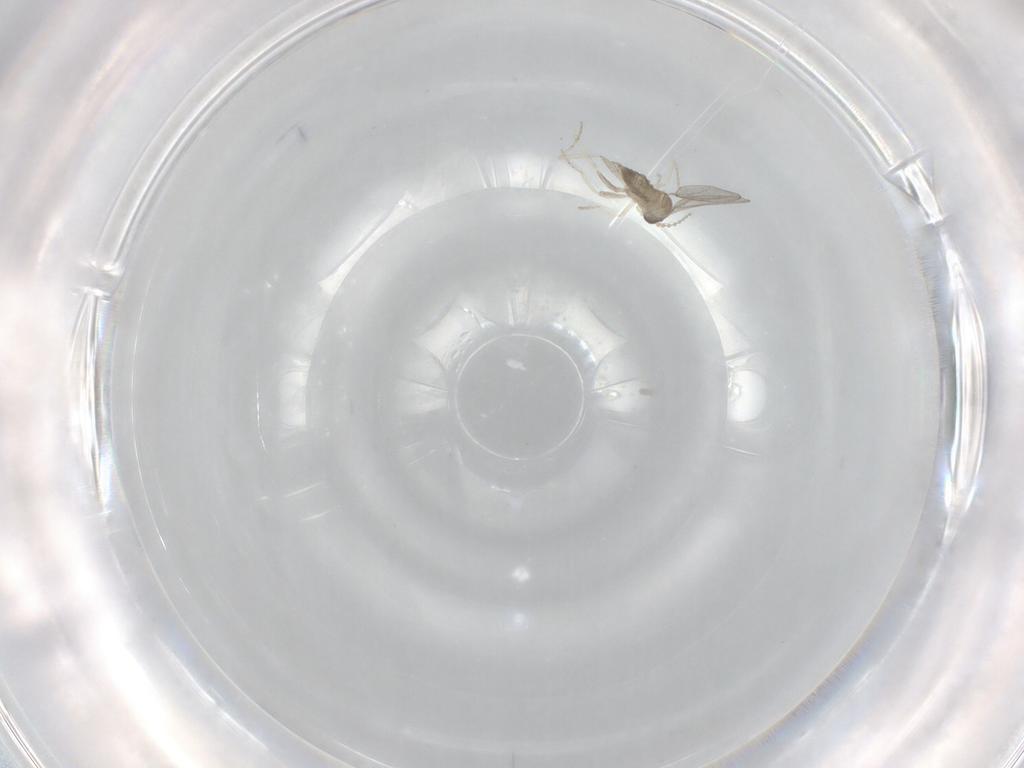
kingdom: Animalia
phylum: Arthropoda
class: Insecta
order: Diptera
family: Cecidomyiidae
